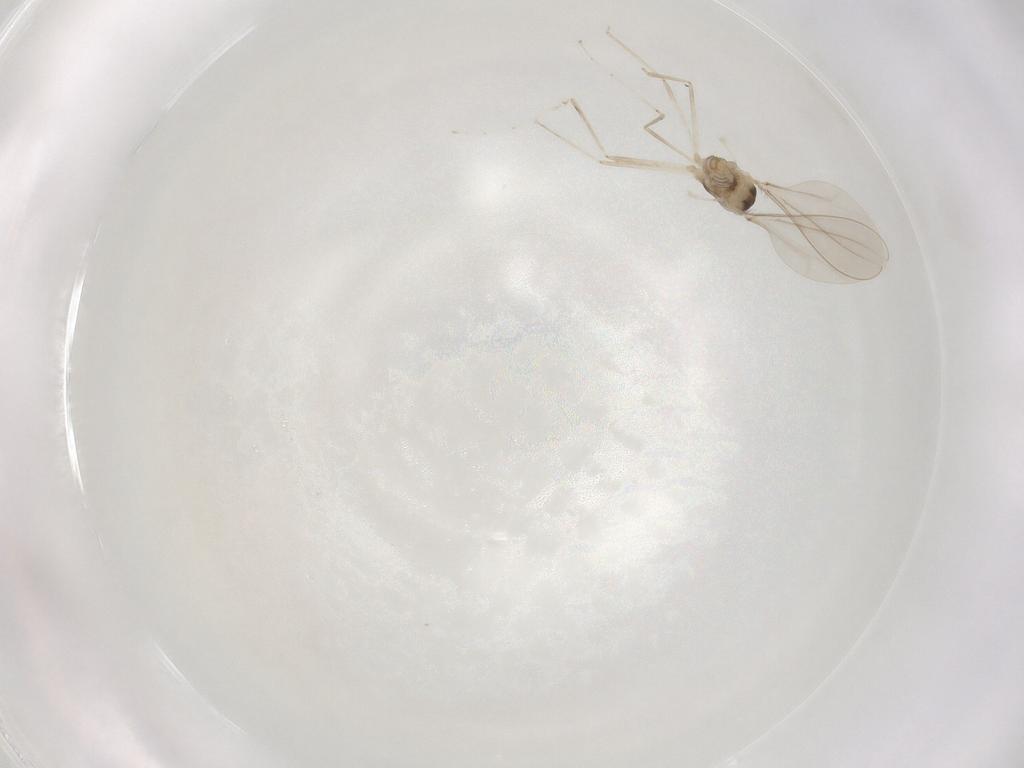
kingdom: Animalia
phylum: Arthropoda
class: Insecta
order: Diptera
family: Cecidomyiidae
